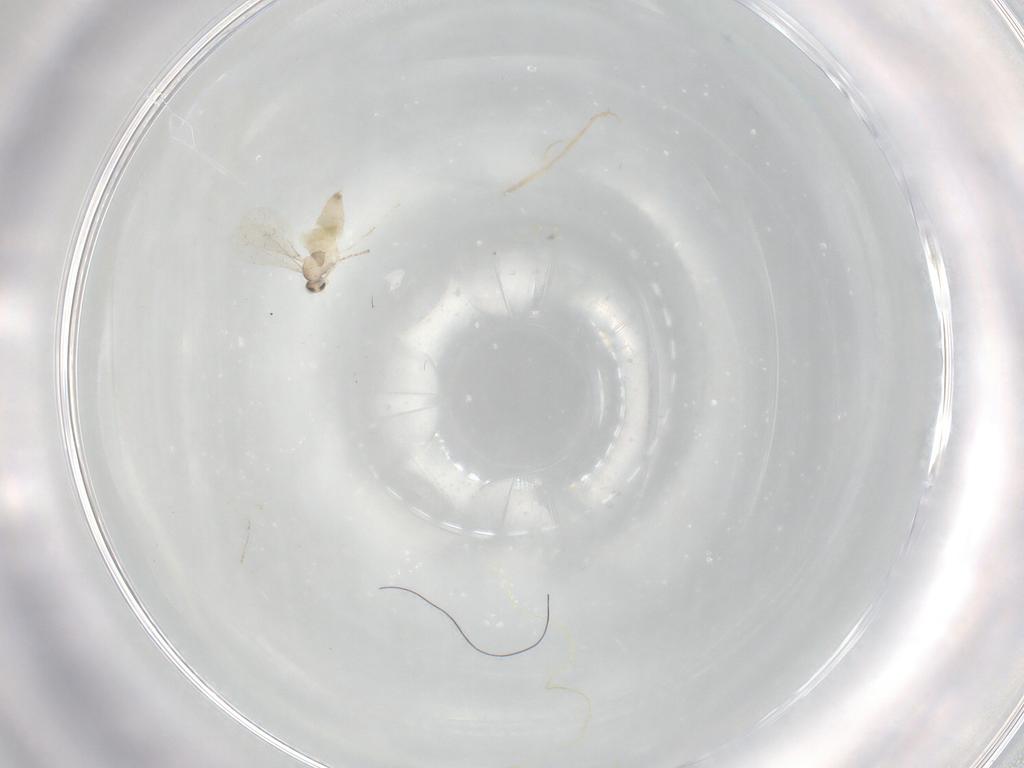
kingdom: Animalia
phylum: Arthropoda
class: Insecta
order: Diptera
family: Cecidomyiidae
